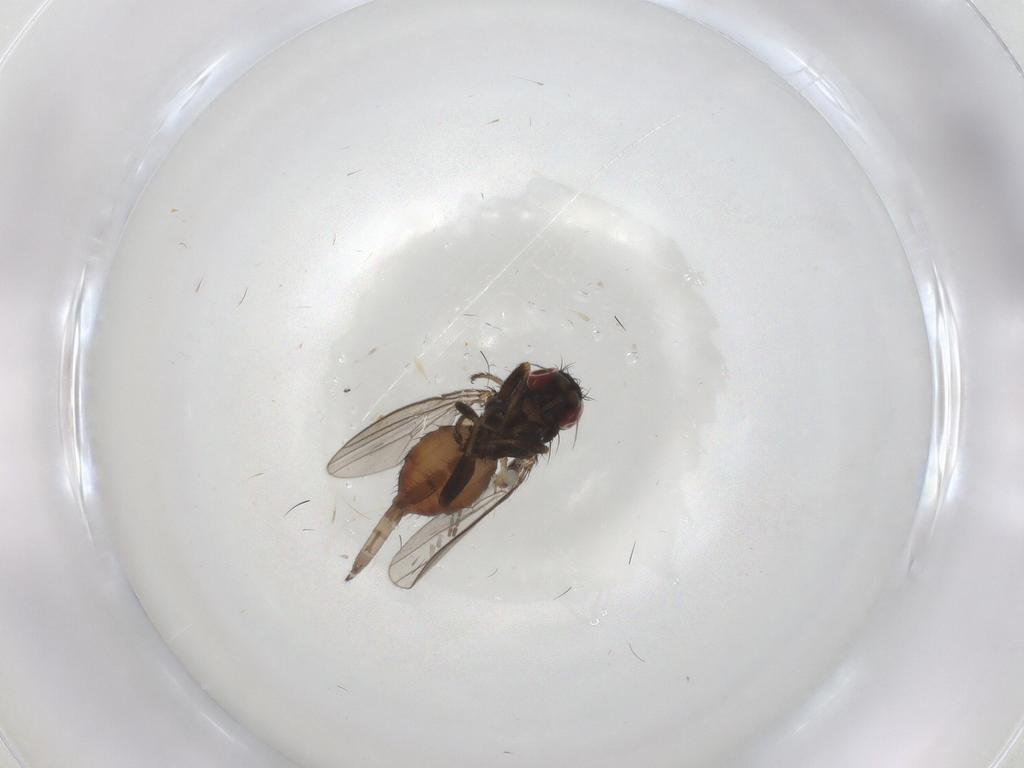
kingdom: Animalia
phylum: Arthropoda
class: Insecta
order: Diptera
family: Milichiidae
